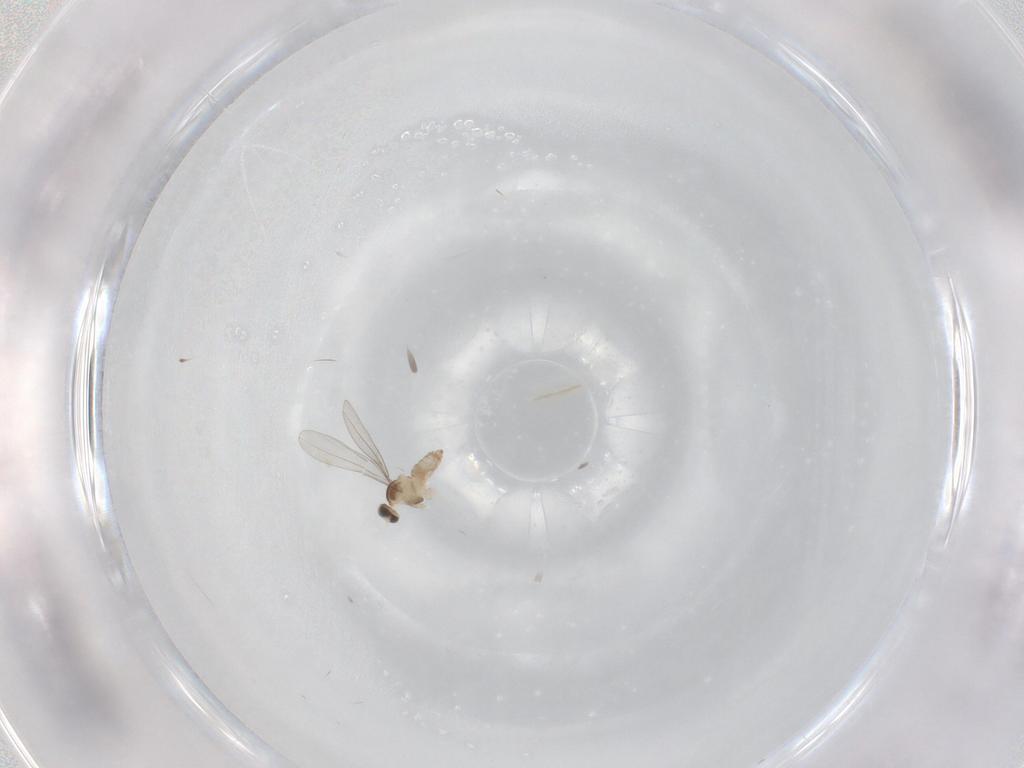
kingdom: Animalia
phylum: Arthropoda
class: Insecta
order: Diptera
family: Cecidomyiidae
